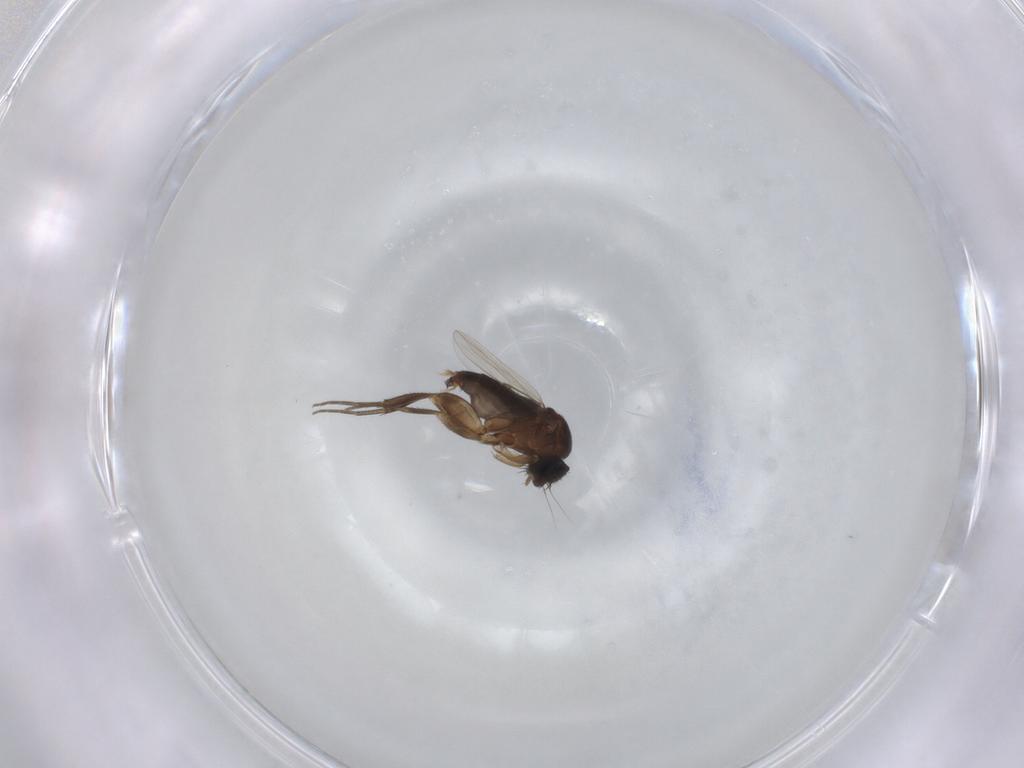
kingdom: Animalia
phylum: Arthropoda
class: Insecta
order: Diptera
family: Phoridae
